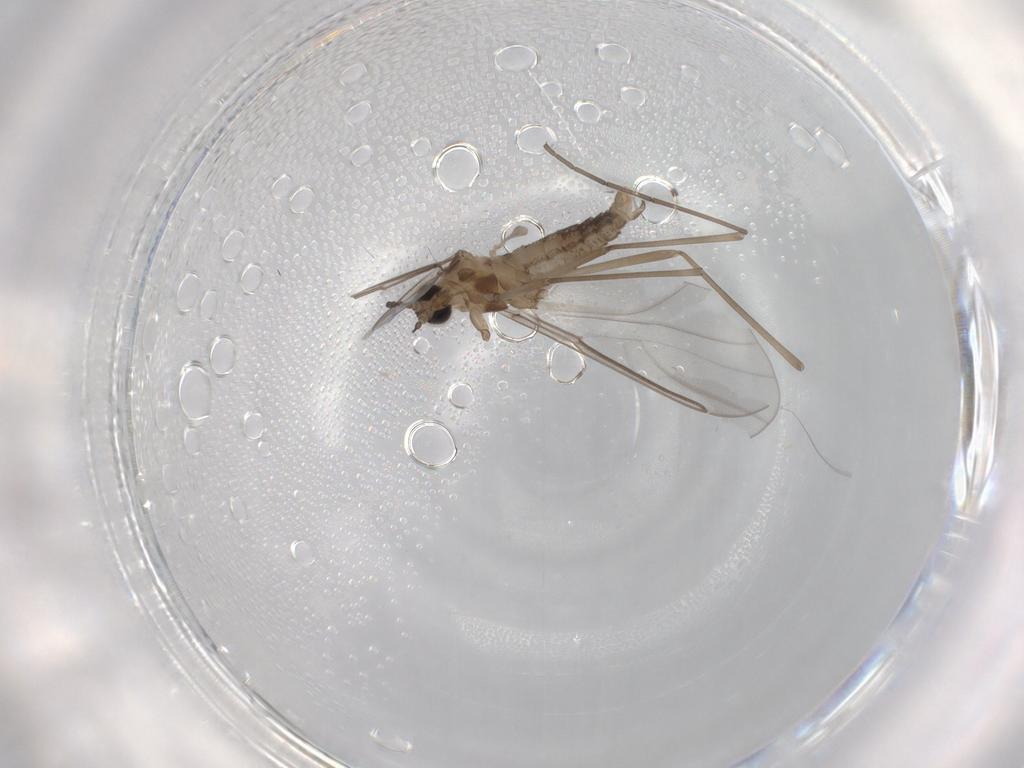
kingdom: Animalia
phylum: Arthropoda
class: Insecta
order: Diptera
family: Cecidomyiidae
